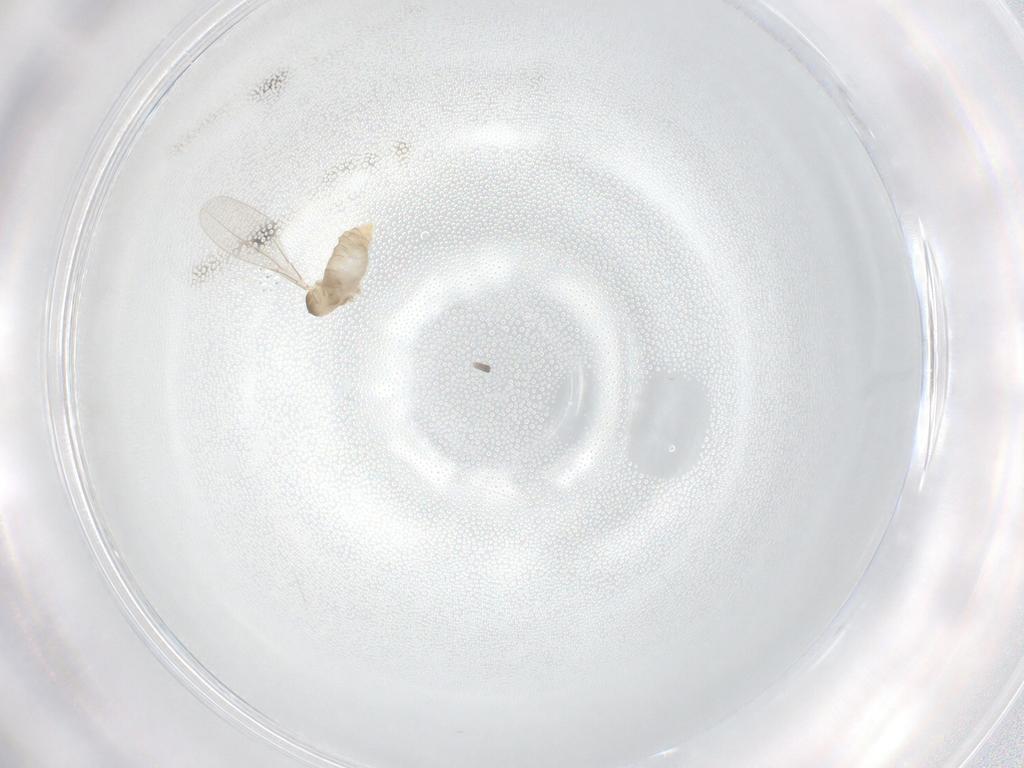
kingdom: Animalia
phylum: Arthropoda
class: Insecta
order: Diptera
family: Cecidomyiidae
